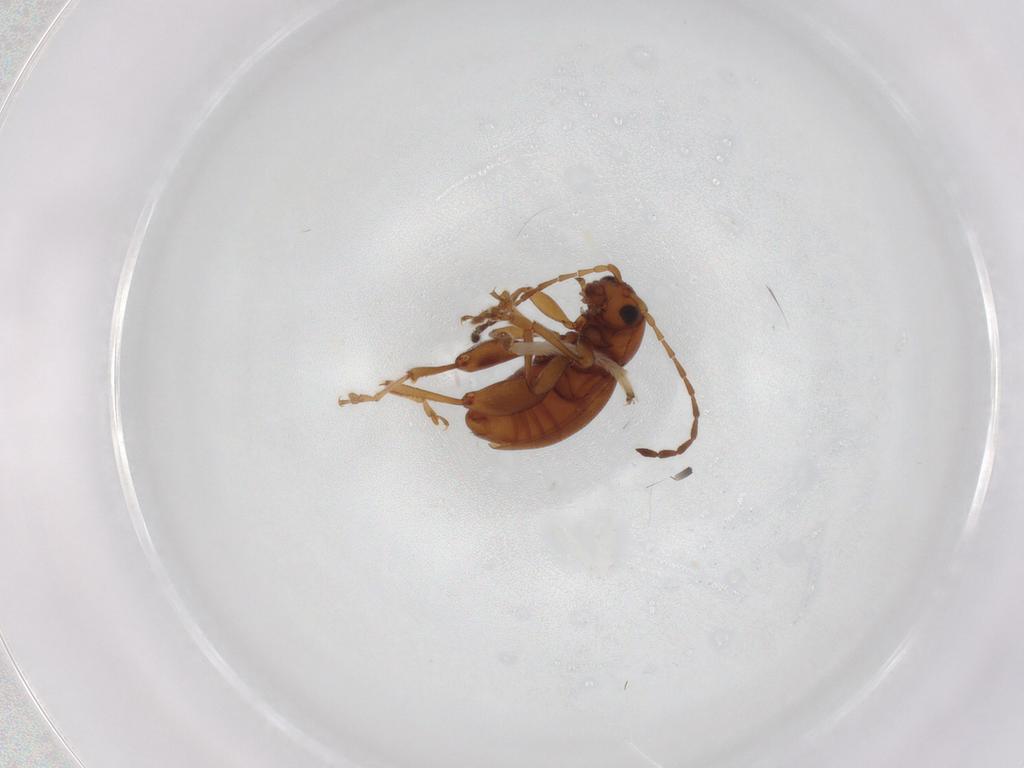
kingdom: Animalia
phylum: Arthropoda
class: Insecta
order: Coleoptera
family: Chrysomelidae
